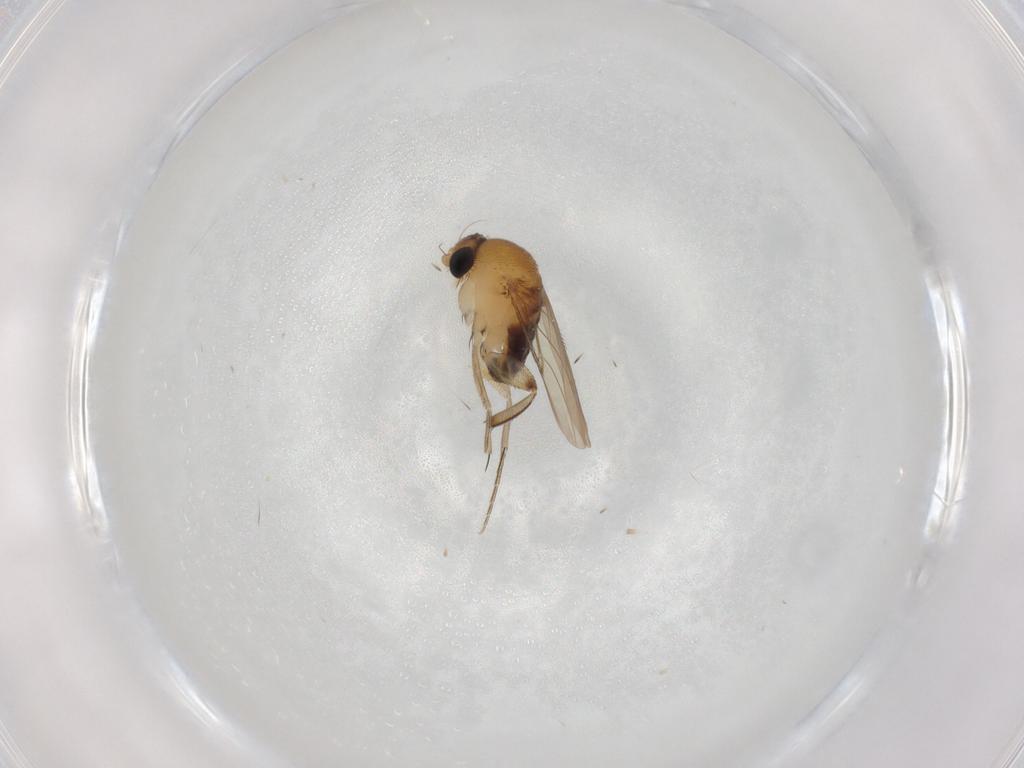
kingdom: Animalia
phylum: Arthropoda
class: Insecta
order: Diptera
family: Phoridae
